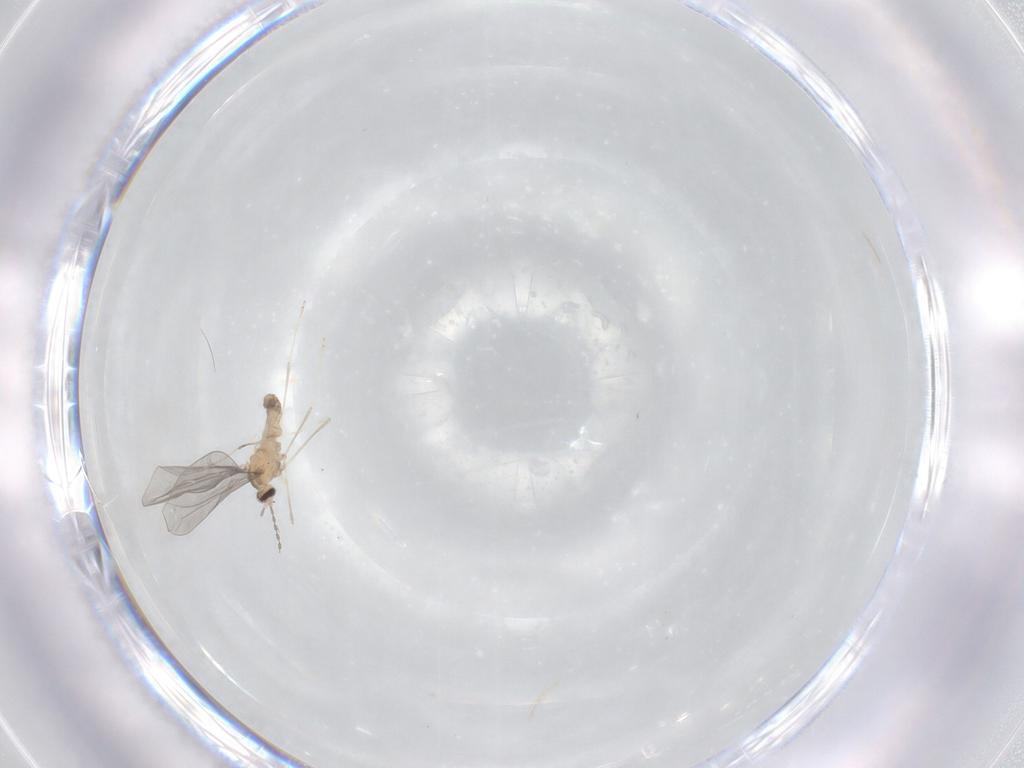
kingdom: Animalia
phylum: Arthropoda
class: Insecta
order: Diptera
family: Cecidomyiidae
